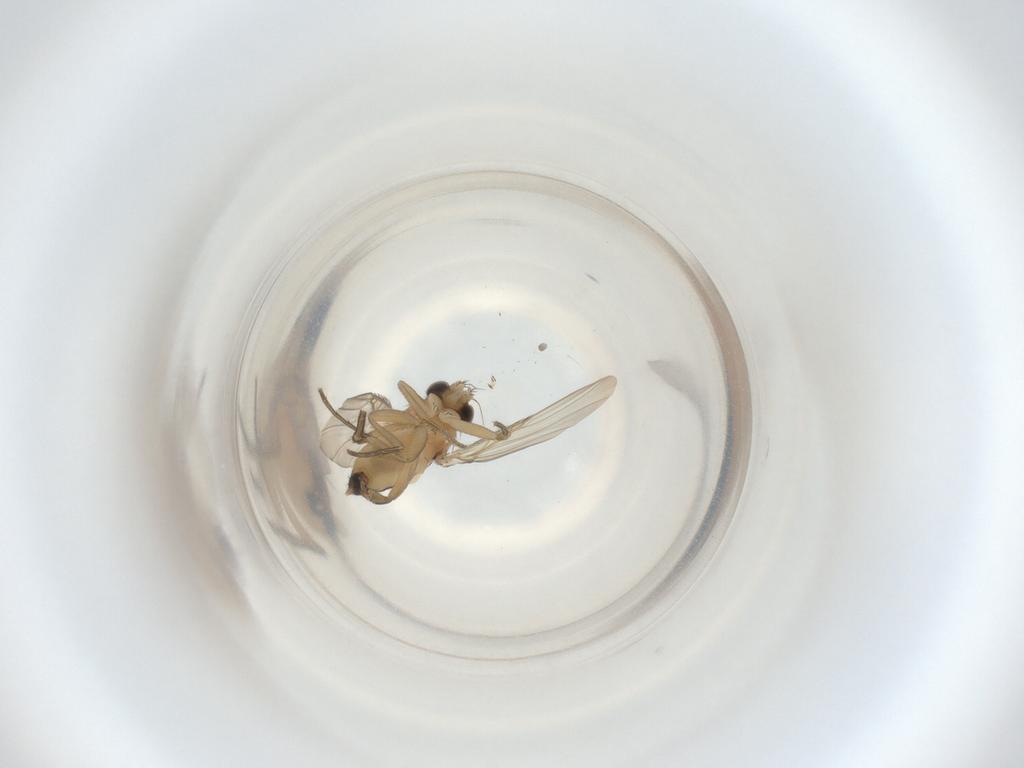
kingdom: Animalia
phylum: Arthropoda
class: Insecta
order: Diptera
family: Phoridae
